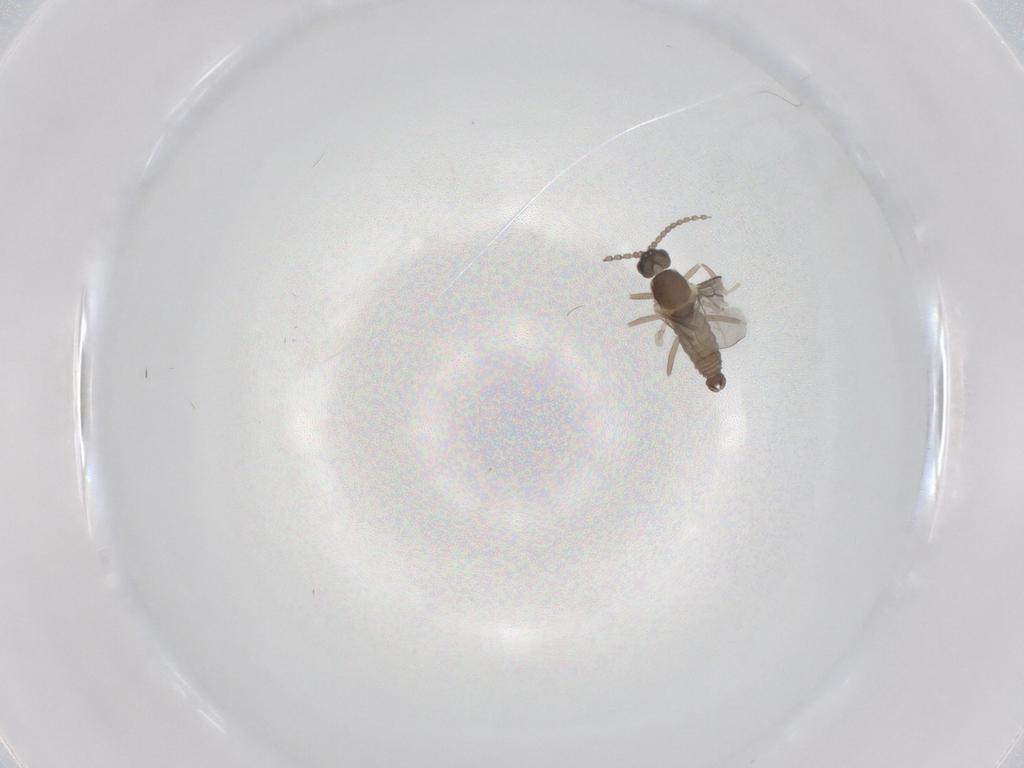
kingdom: Animalia
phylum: Arthropoda
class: Insecta
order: Diptera
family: Cecidomyiidae
